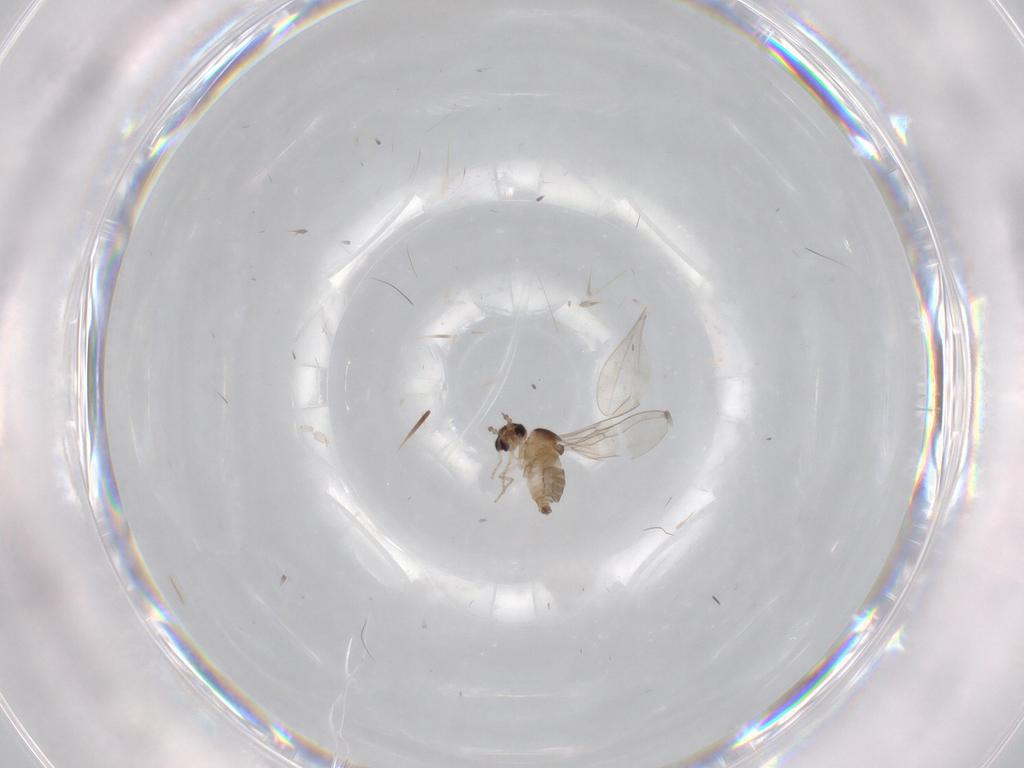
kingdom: Animalia
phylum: Arthropoda
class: Insecta
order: Diptera
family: Cecidomyiidae
